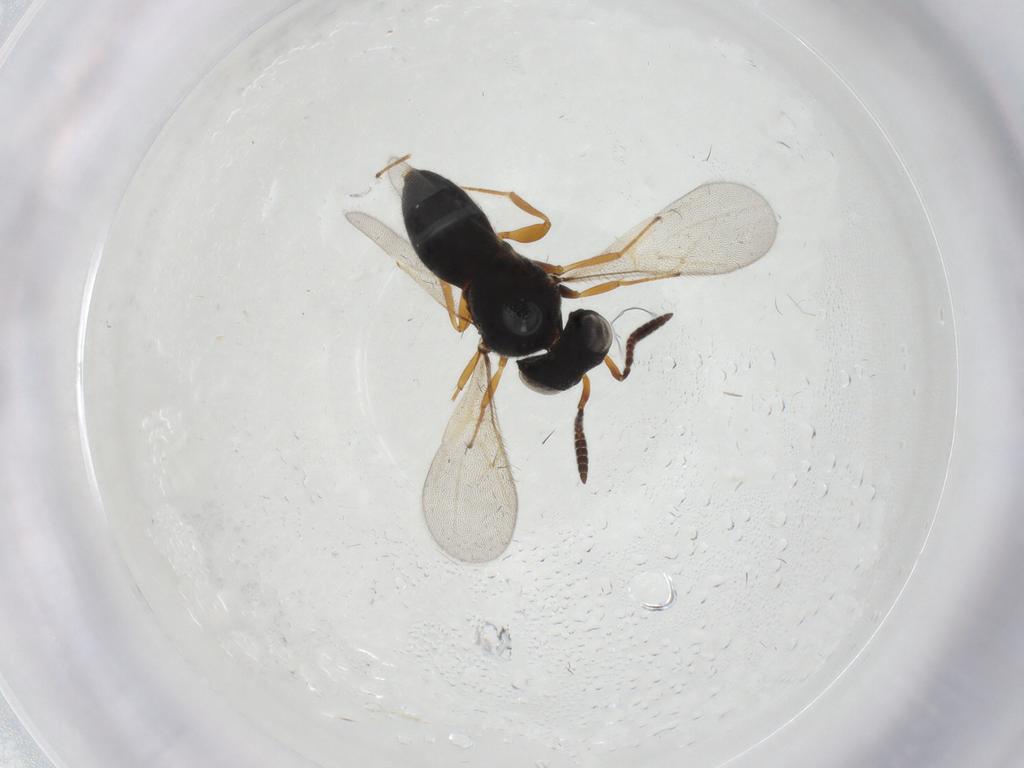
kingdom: Animalia
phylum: Arthropoda
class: Insecta
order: Hymenoptera
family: Scelionidae
